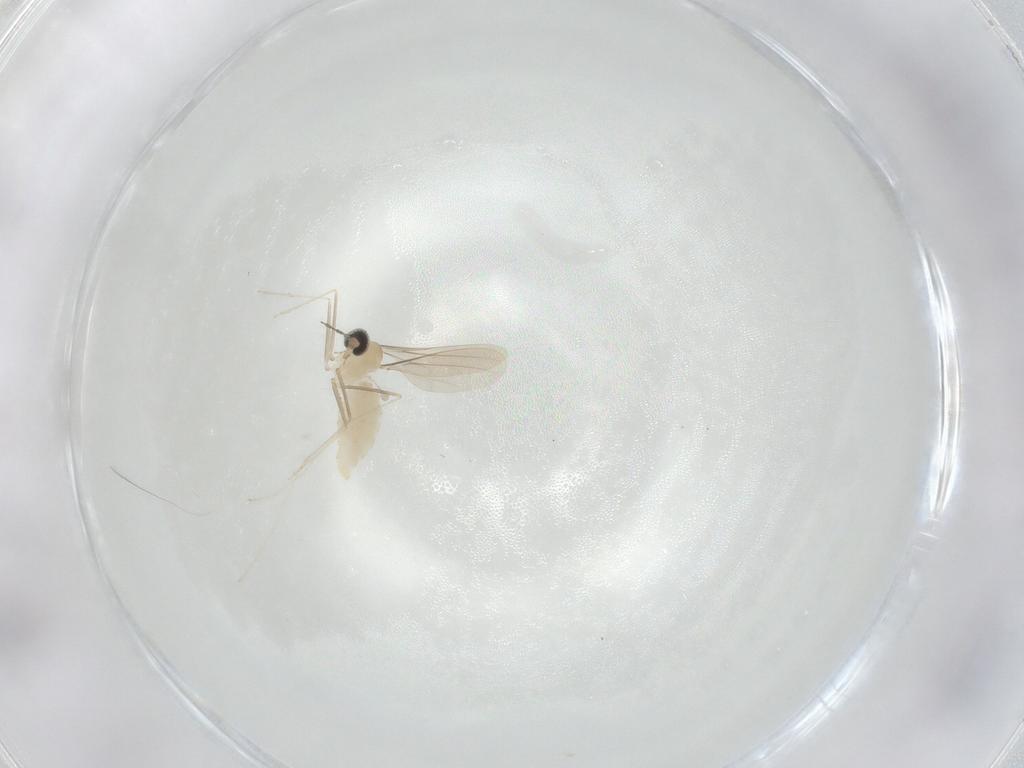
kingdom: Animalia
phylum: Arthropoda
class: Insecta
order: Diptera
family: Cecidomyiidae
